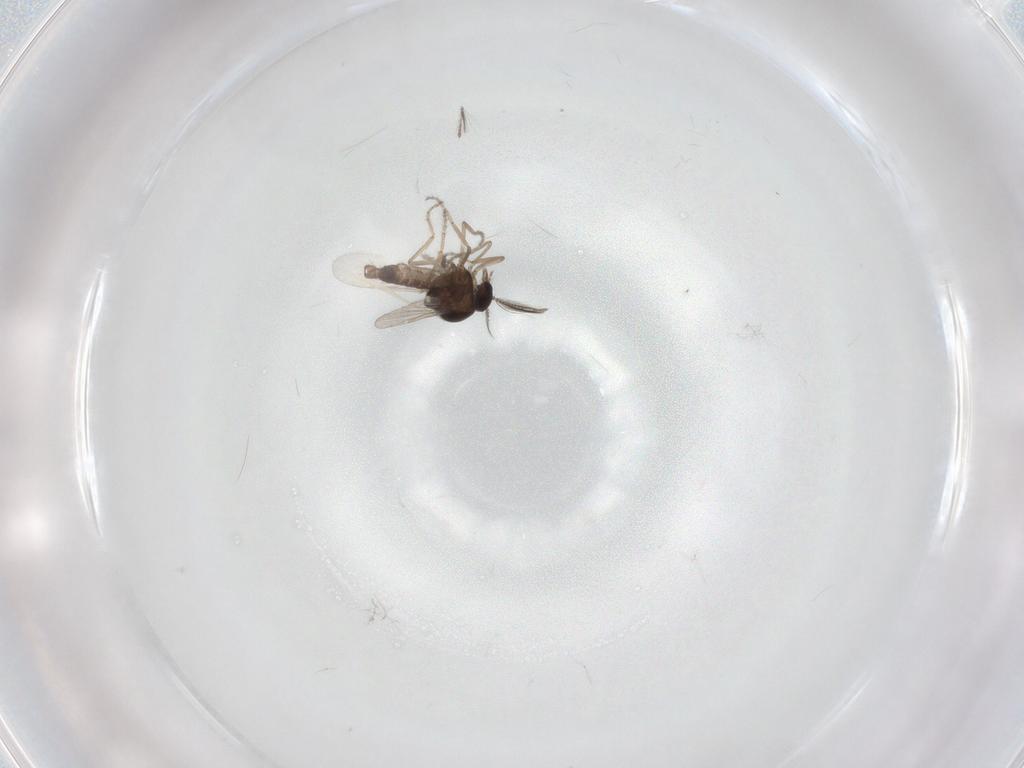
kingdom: Animalia
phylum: Arthropoda
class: Insecta
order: Diptera
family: Ceratopogonidae
